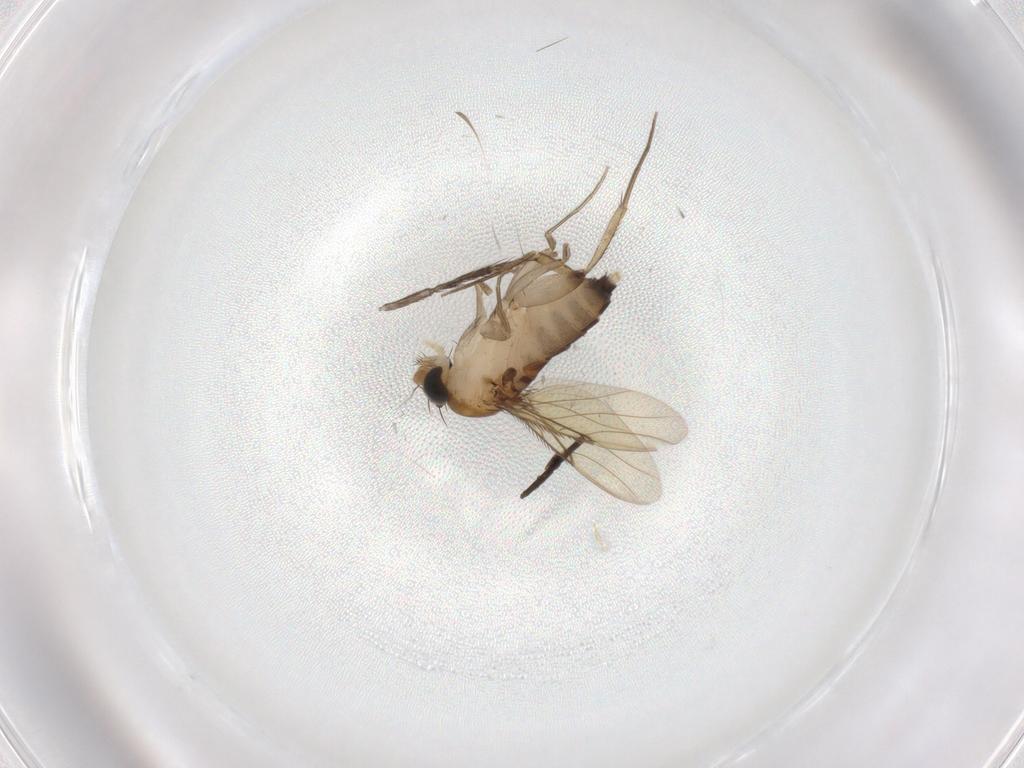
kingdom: Animalia
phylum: Arthropoda
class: Insecta
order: Diptera
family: Phoridae
